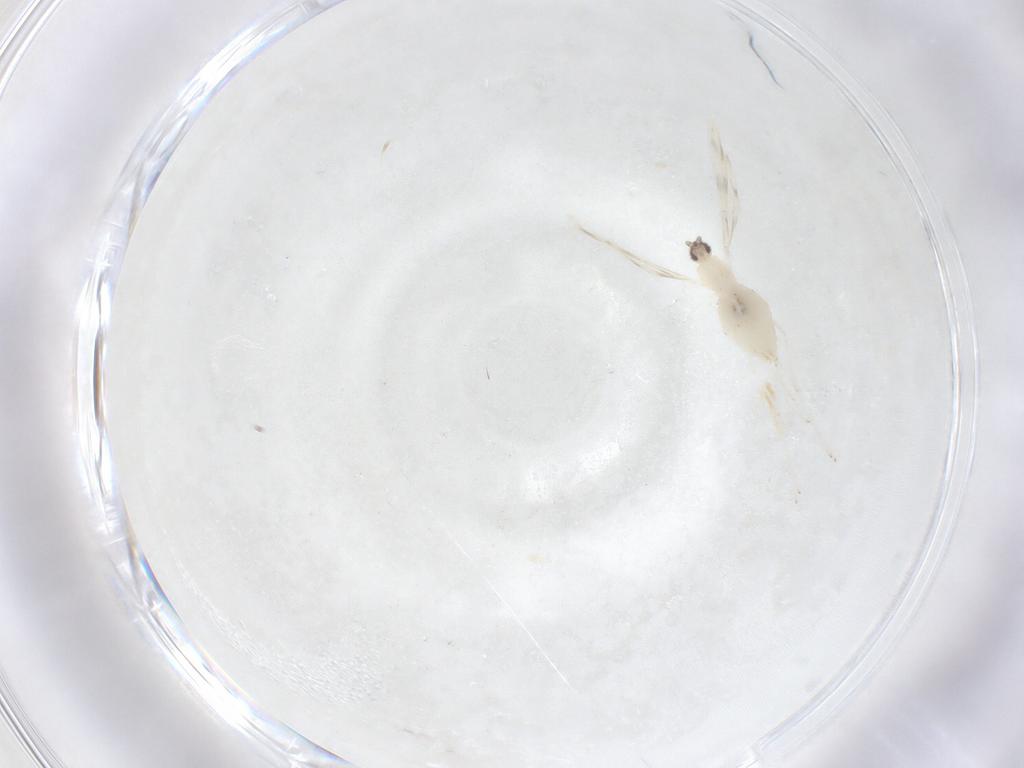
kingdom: Animalia
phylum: Arthropoda
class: Insecta
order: Diptera
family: Cecidomyiidae
